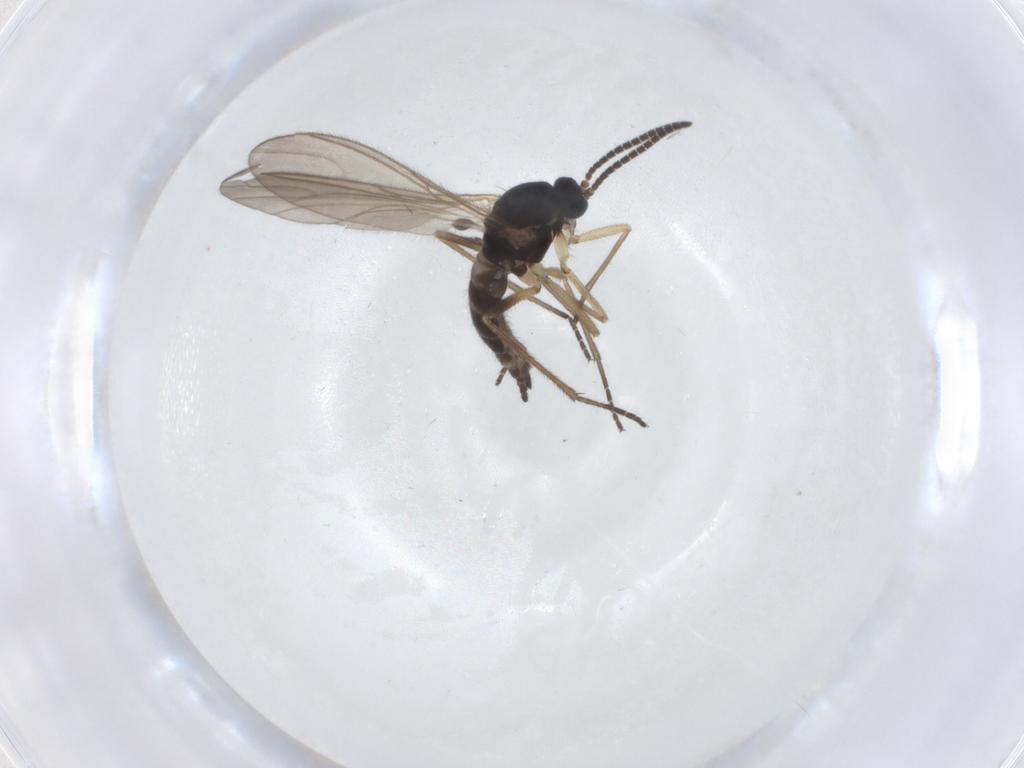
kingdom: Animalia
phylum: Arthropoda
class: Insecta
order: Diptera
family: Sciaridae
